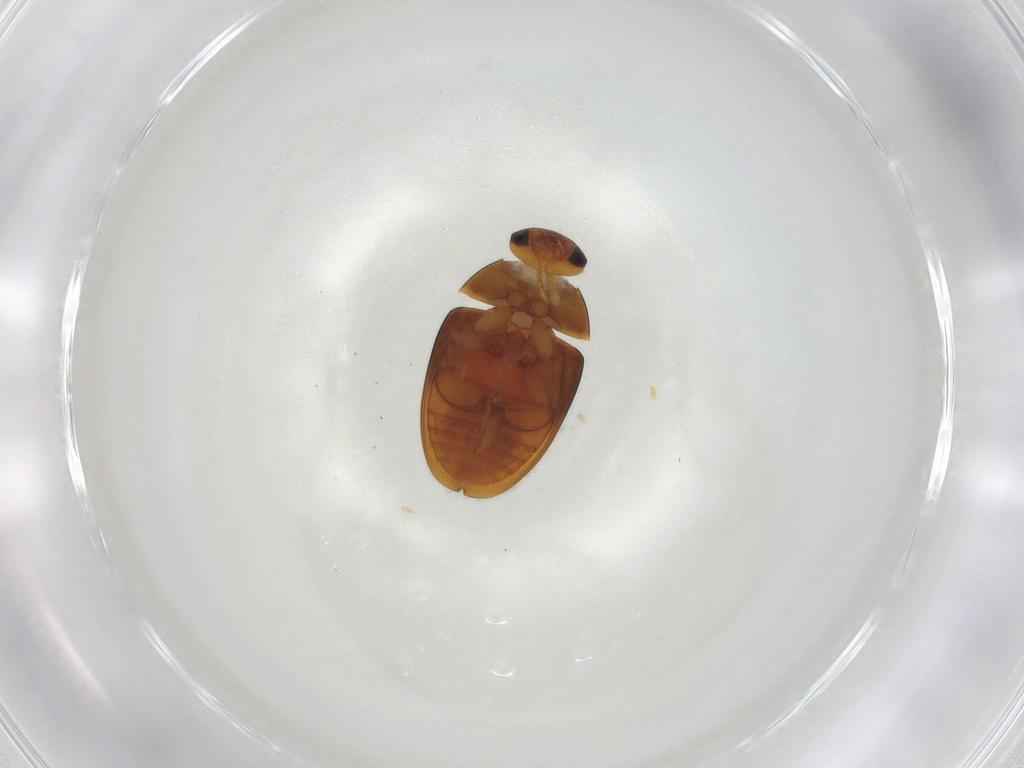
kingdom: Animalia
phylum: Arthropoda
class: Insecta
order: Coleoptera
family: Phalacridae
